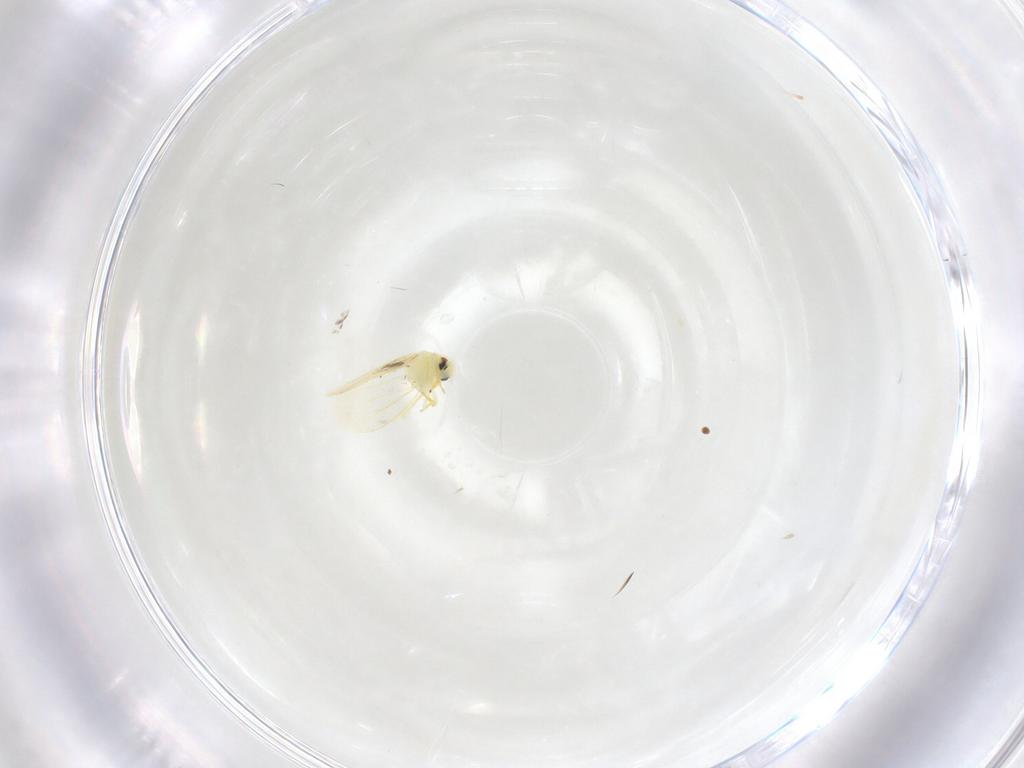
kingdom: Animalia
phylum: Arthropoda
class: Insecta
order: Hemiptera
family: Aleyrodidae
